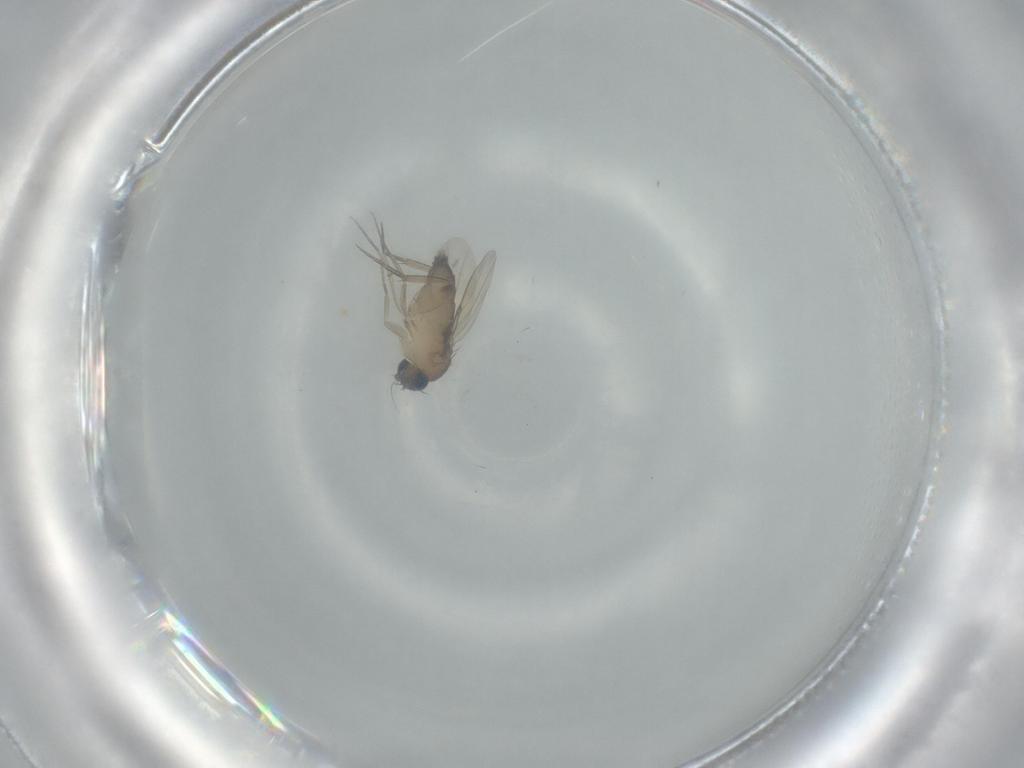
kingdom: Animalia
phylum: Arthropoda
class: Insecta
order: Diptera
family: Phoridae
